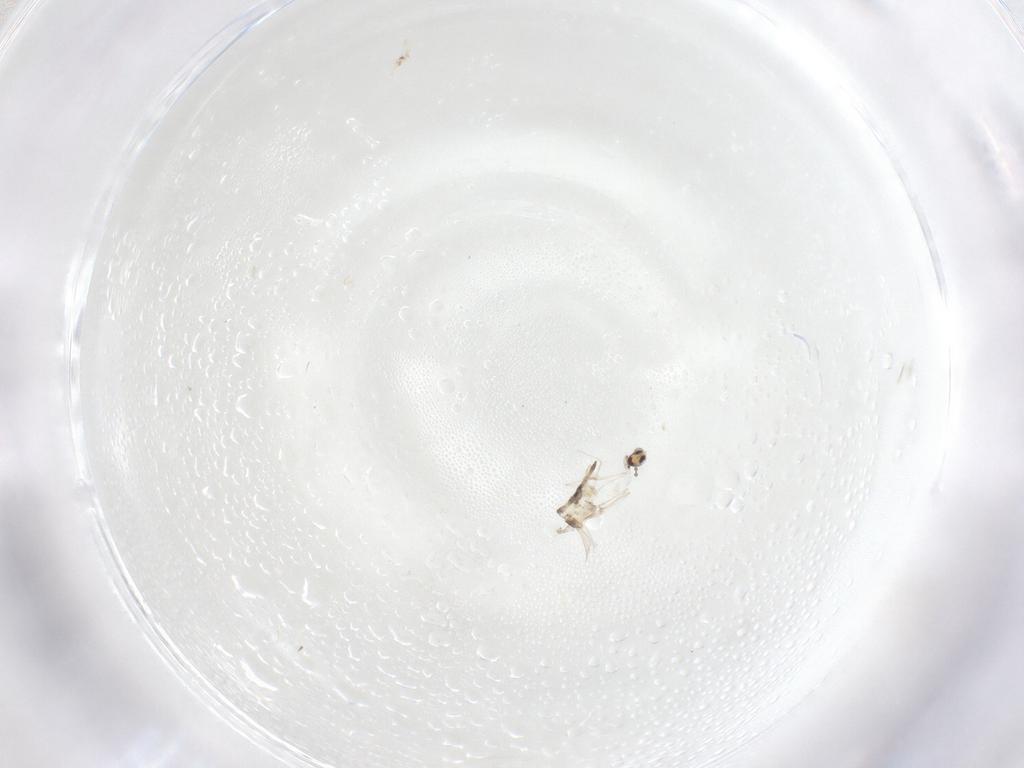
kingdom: Animalia
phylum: Arthropoda
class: Insecta
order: Diptera
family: Cecidomyiidae
